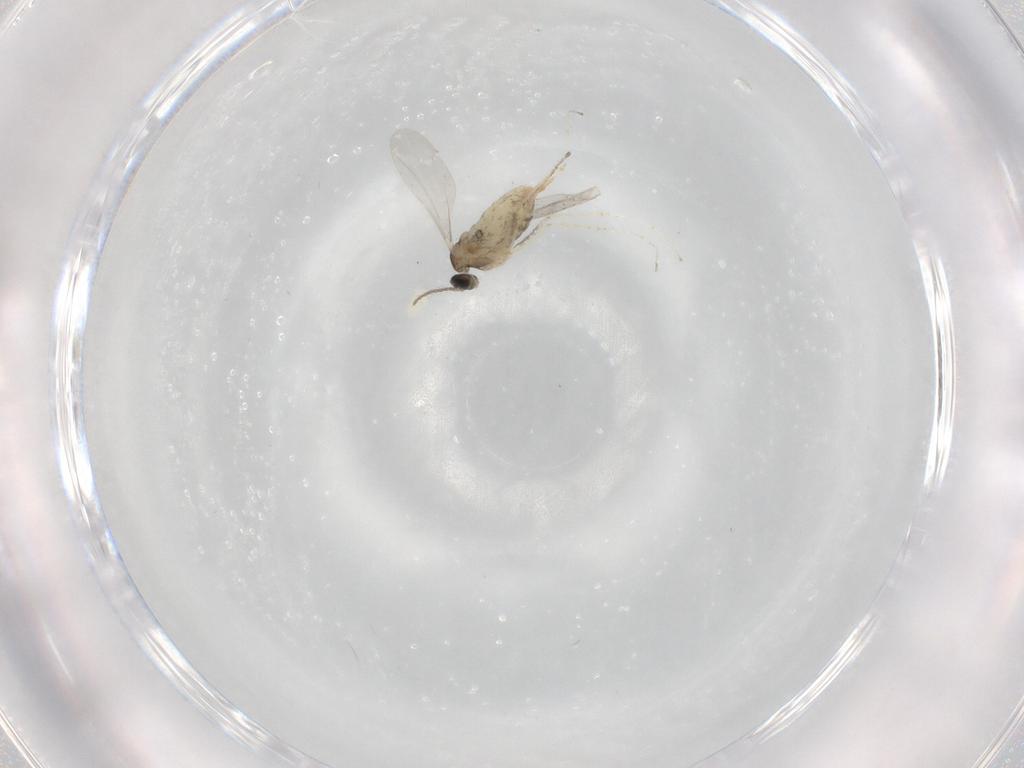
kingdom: Animalia
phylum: Arthropoda
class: Insecta
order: Diptera
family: Cecidomyiidae
